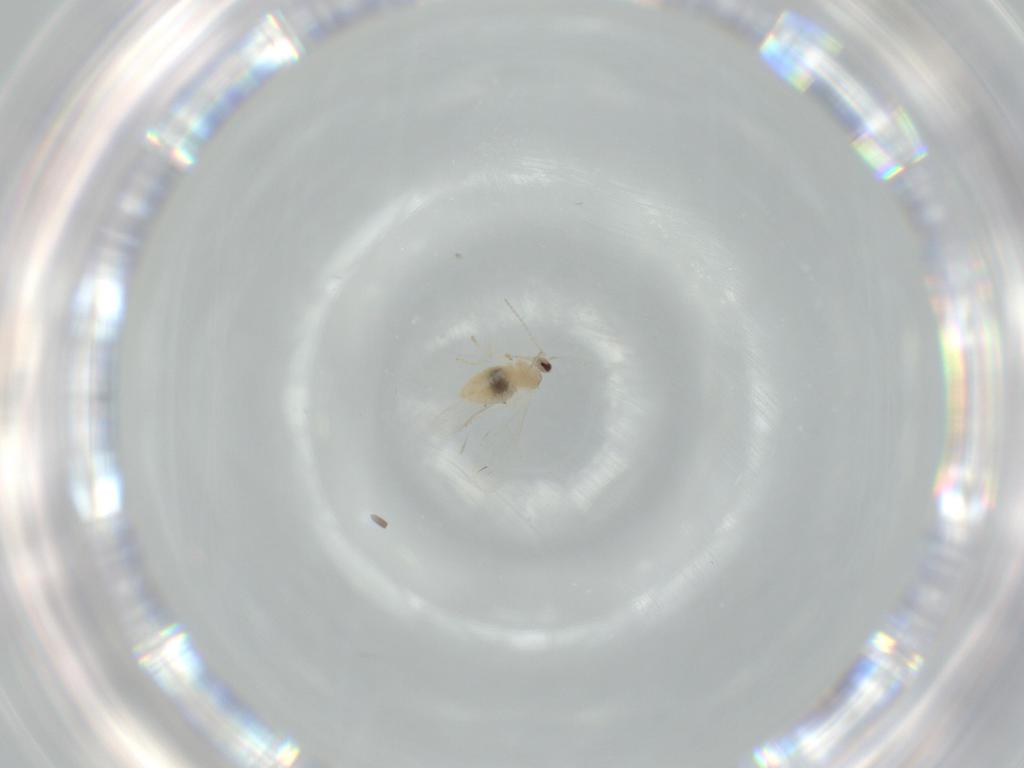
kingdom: Animalia
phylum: Arthropoda
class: Insecta
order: Diptera
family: Cecidomyiidae
